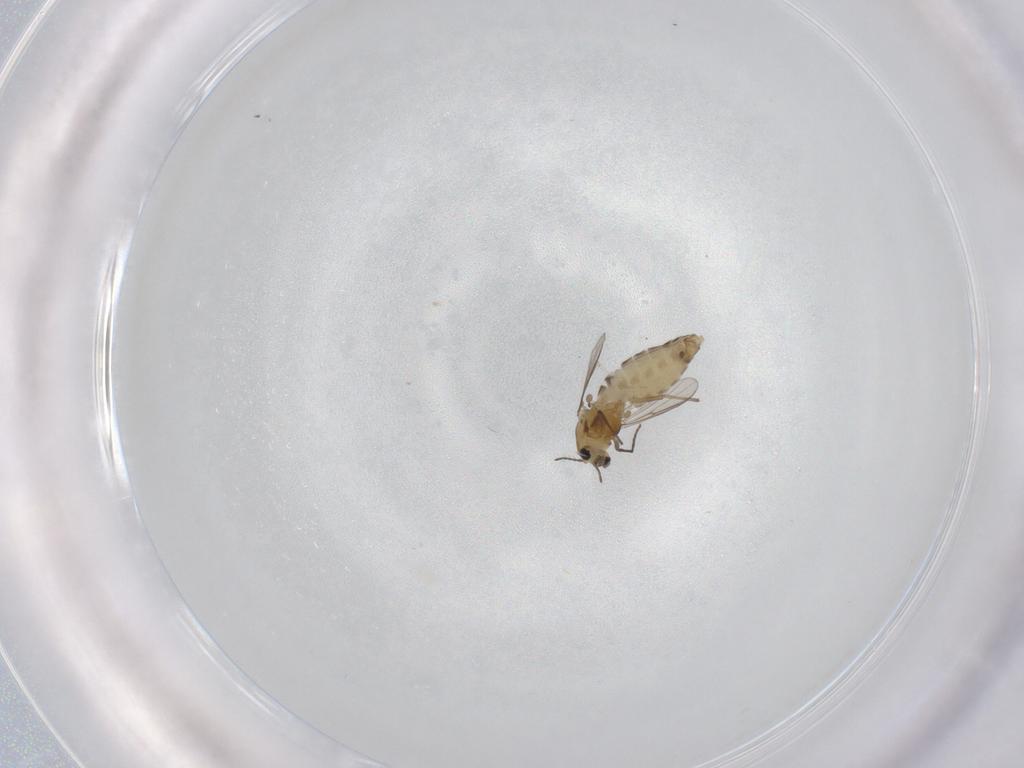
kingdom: Animalia
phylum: Arthropoda
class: Insecta
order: Diptera
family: Chironomidae
